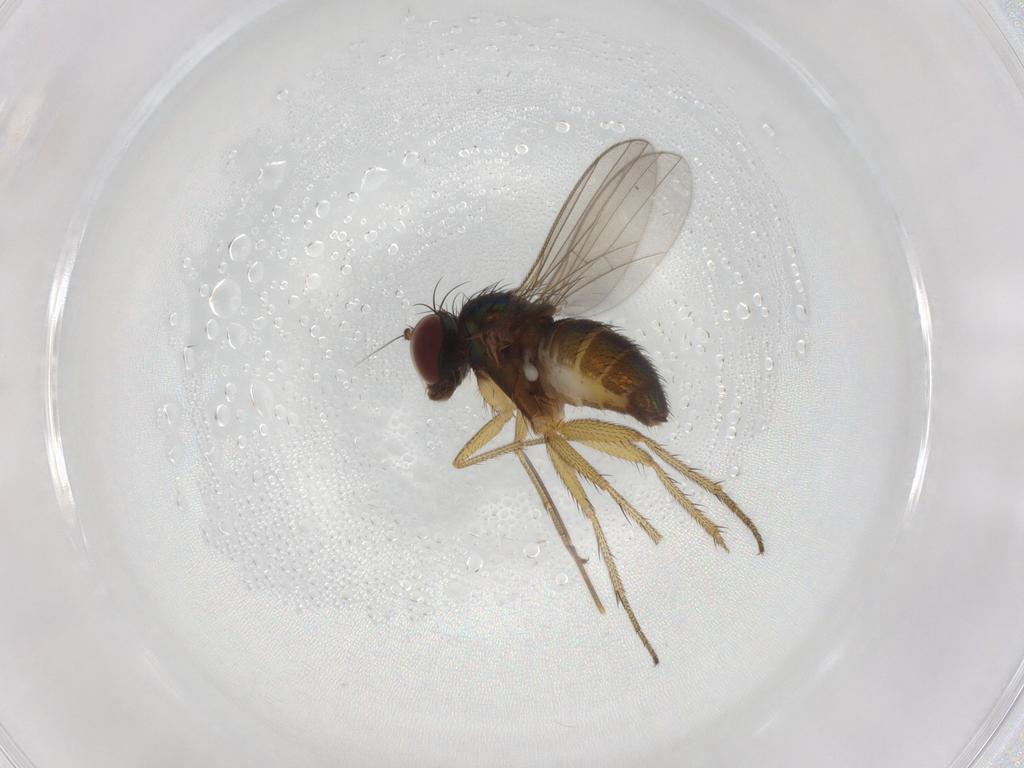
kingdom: Animalia
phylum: Arthropoda
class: Insecta
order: Diptera
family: Dolichopodidae
